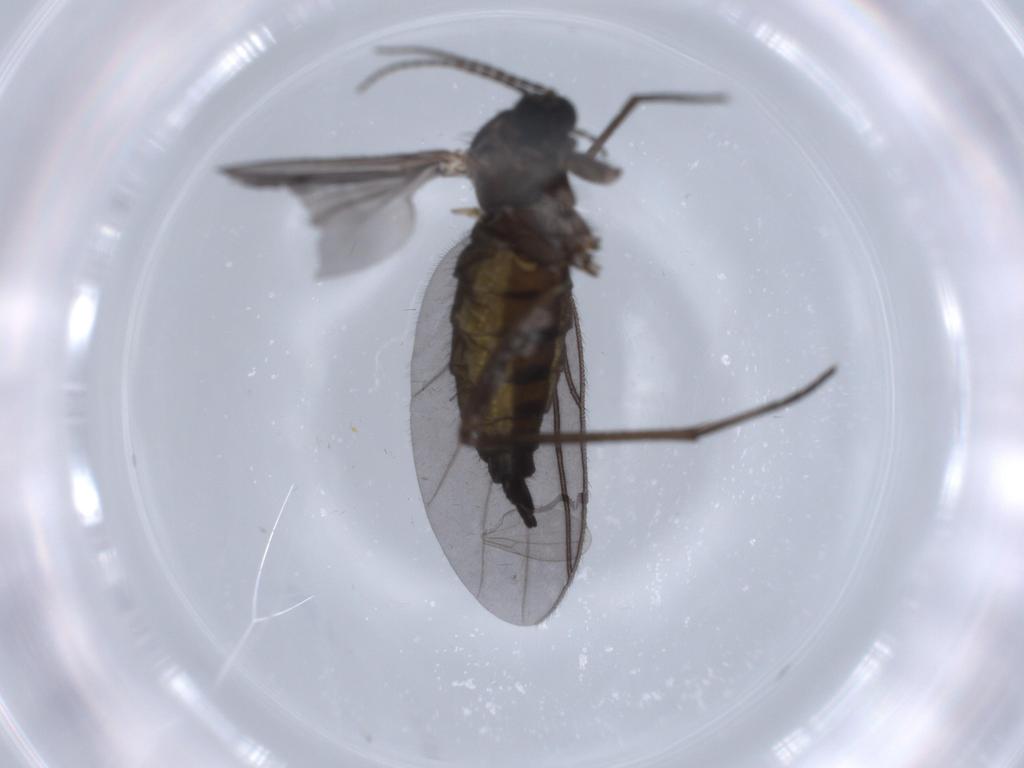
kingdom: Animalia
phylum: Arthropoda
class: Insecta
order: Diptera
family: Sciaridae
